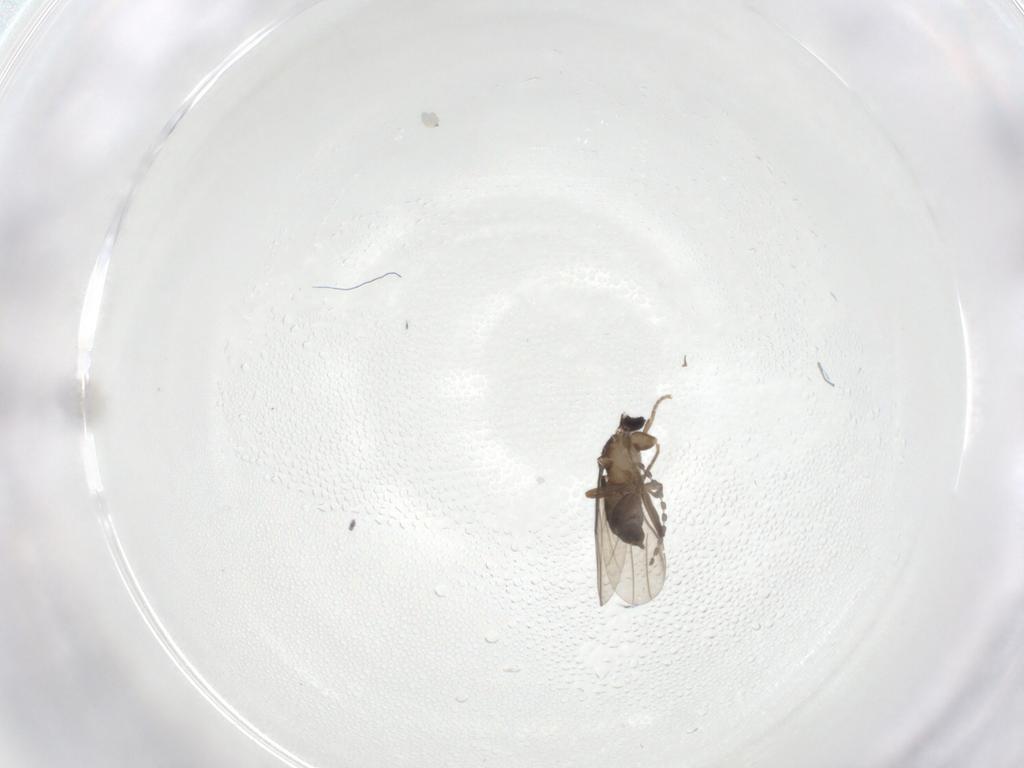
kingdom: Animalia
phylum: Arthropoda
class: Insecta
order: Diptera
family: Phoridae
